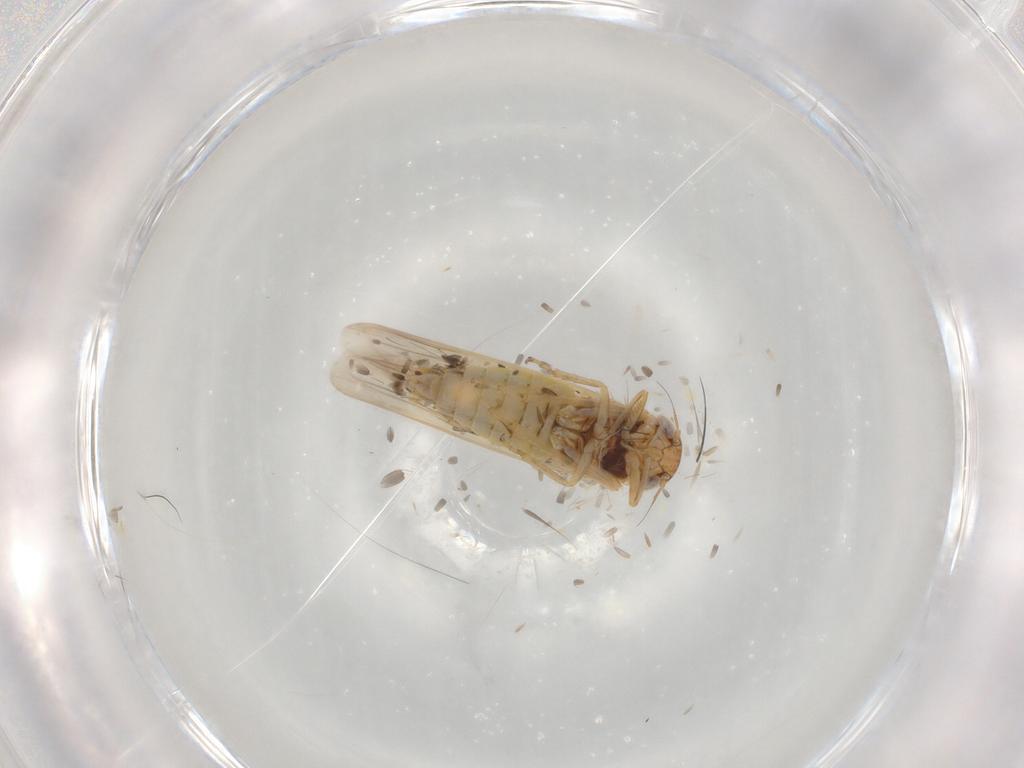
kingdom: Animalia
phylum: Arthropoda
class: Insecta
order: Hemiptera
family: Cicadellidae
